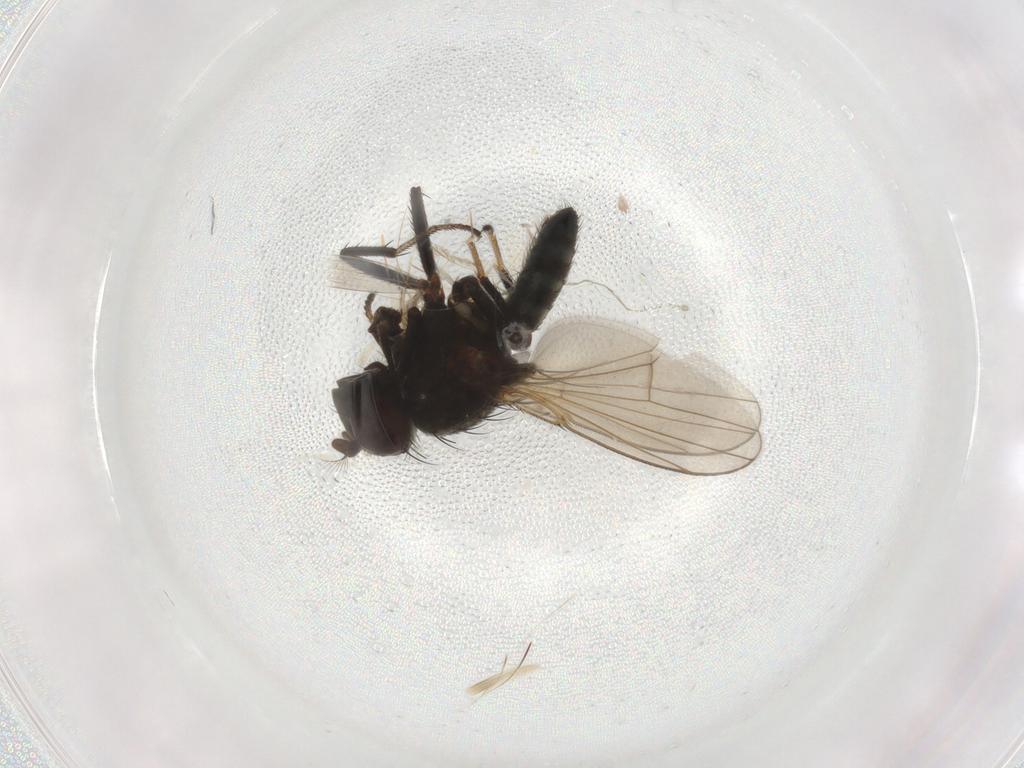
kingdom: Animalia
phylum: Arthropoda
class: Insecta
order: Diptera
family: Ephydridae
